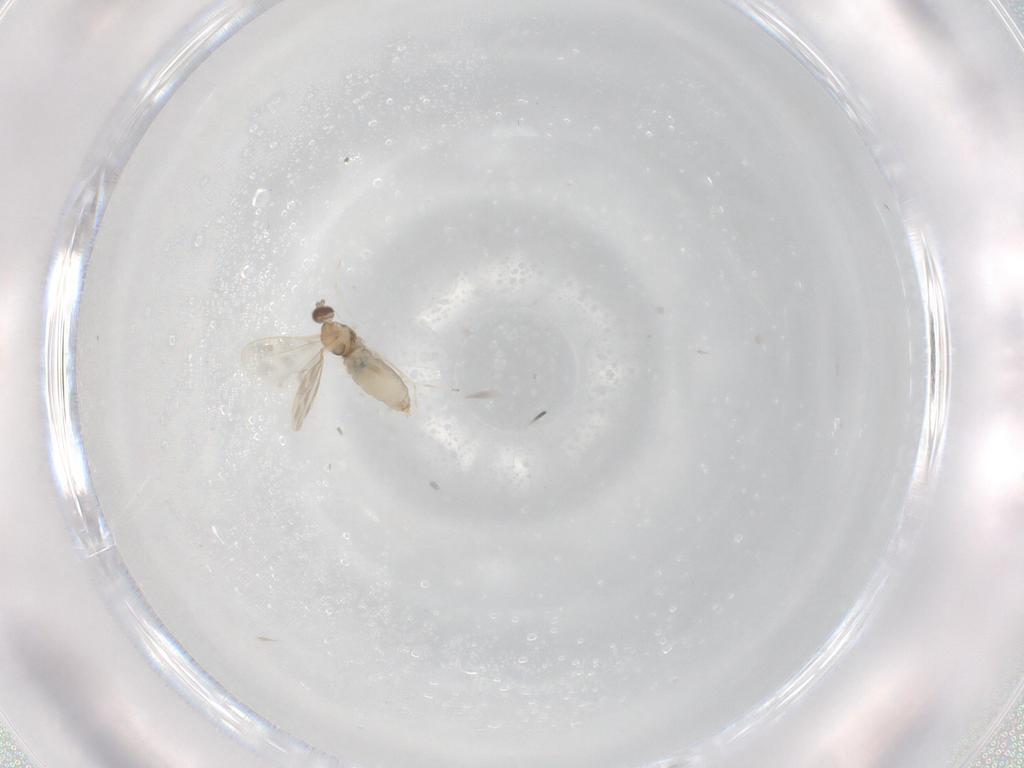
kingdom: Animalia
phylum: Arthropoda
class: Insecta
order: Diptera
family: Cecidomyiidae
